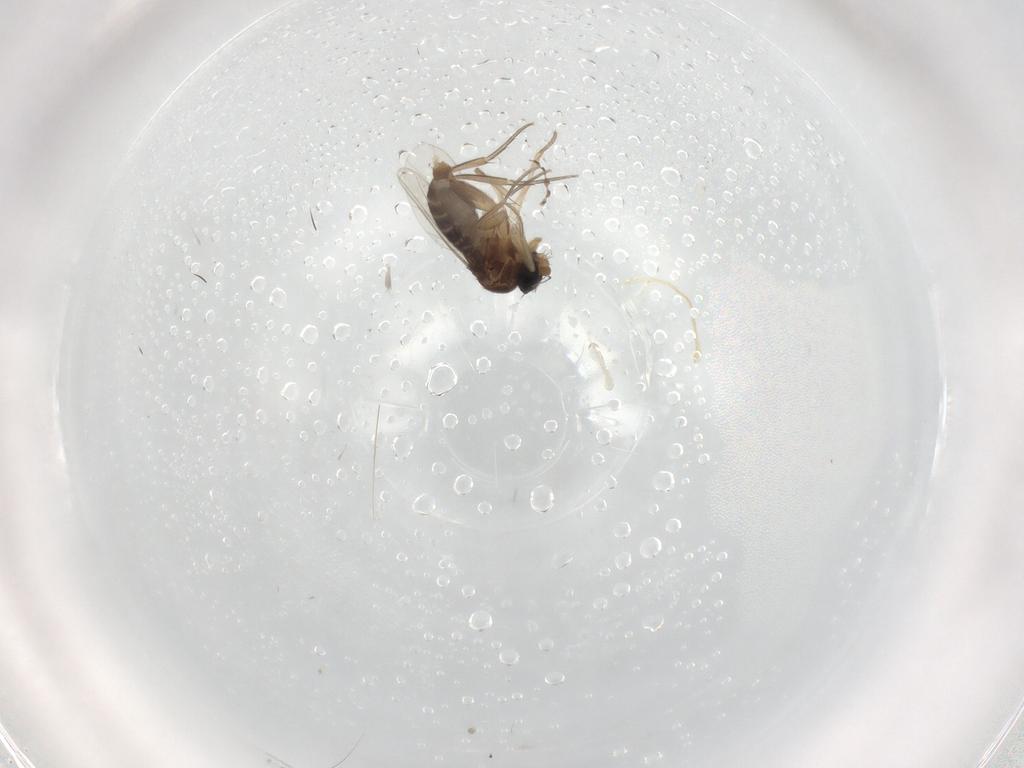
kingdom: Animalia
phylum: Arthropoda
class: Insecta
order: Diptera
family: Phoridae
